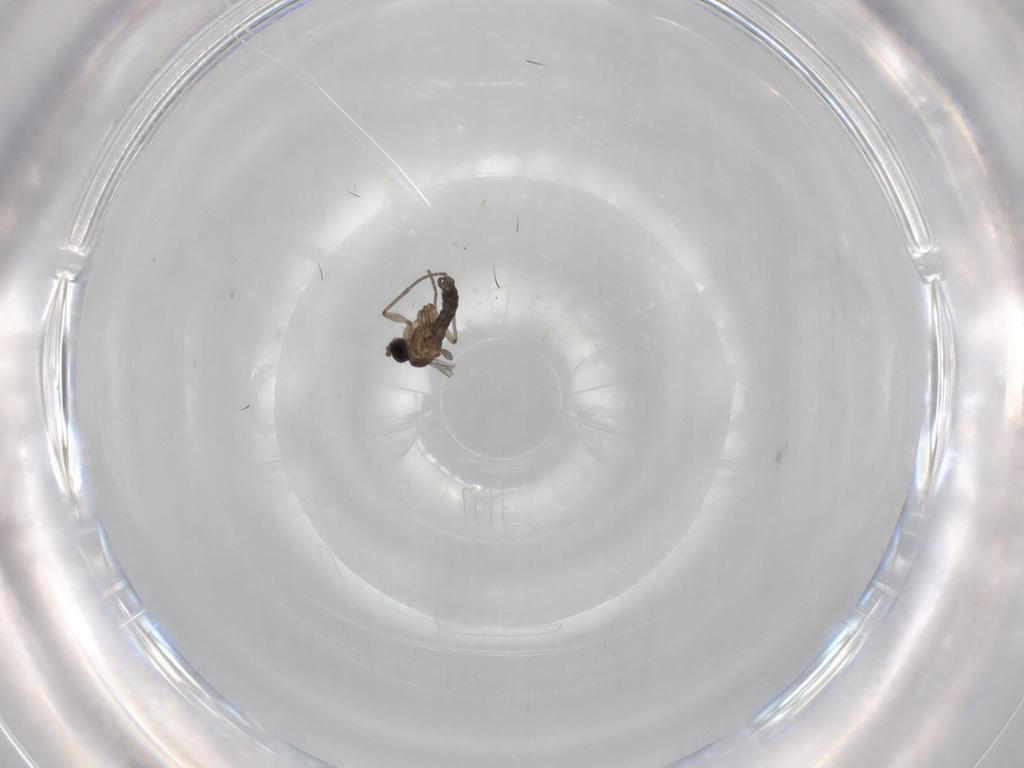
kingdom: Animalia
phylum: Arthropoda
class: Insecta
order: Diptera
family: Sciaridae
